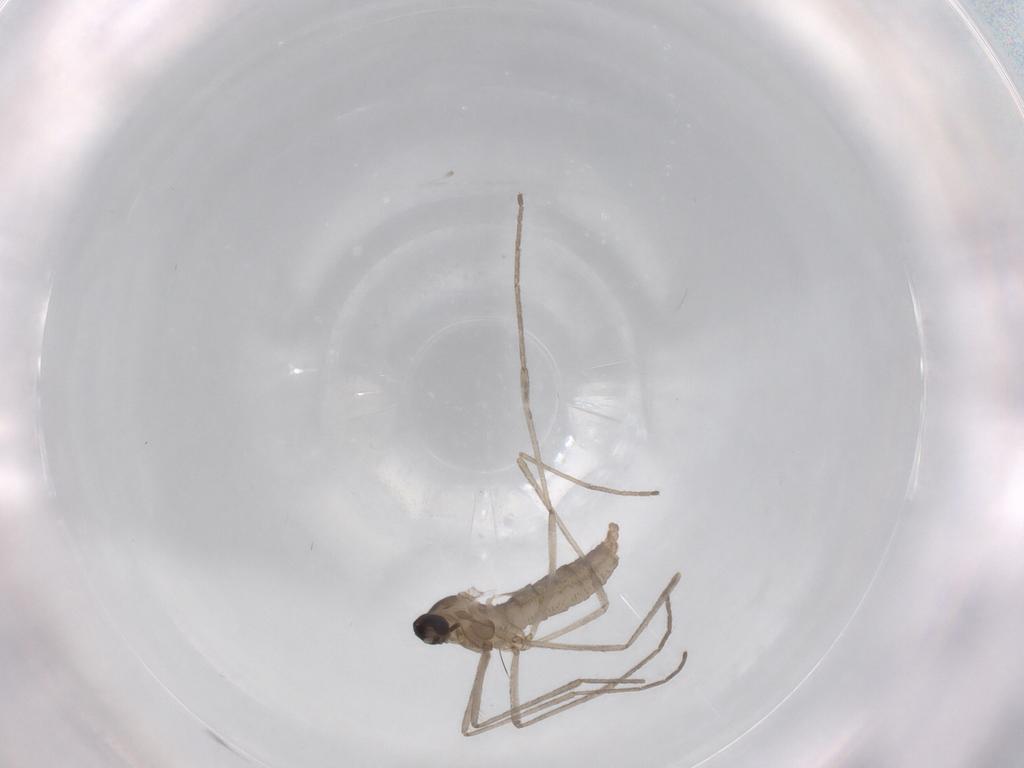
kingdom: Animalia
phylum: Arthropoda
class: Insecta
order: Diptera
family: Cecidomyiidae
